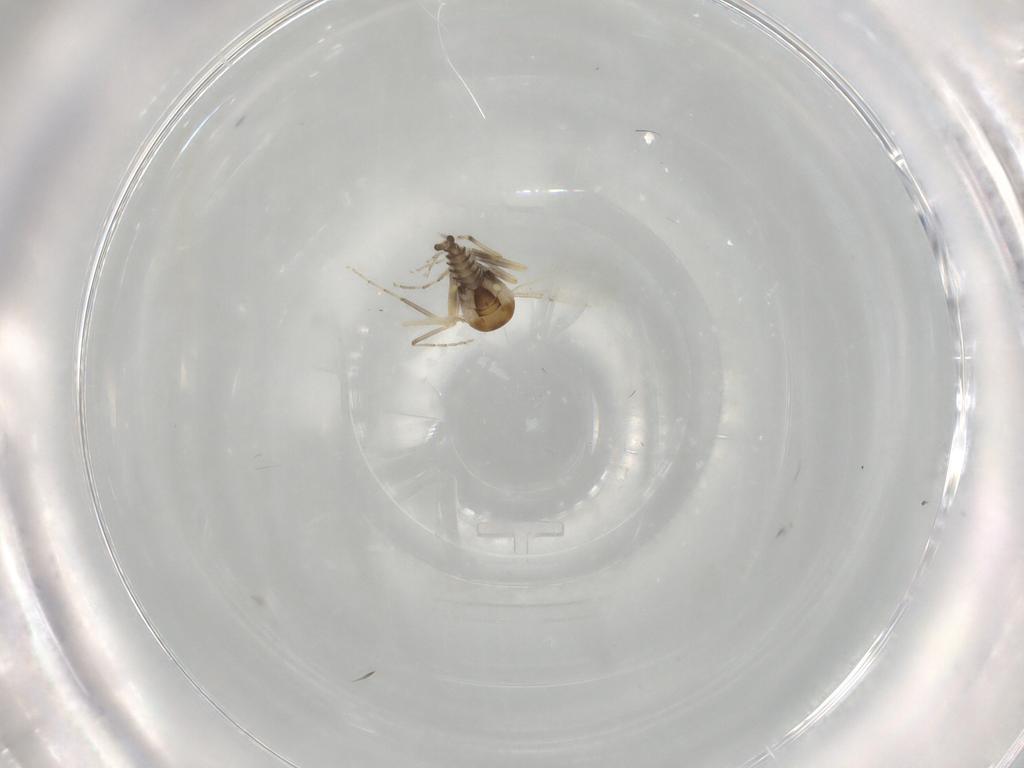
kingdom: Animalia
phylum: Arthropoda
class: Insecta
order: Diptera
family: Ceratopogonidae
